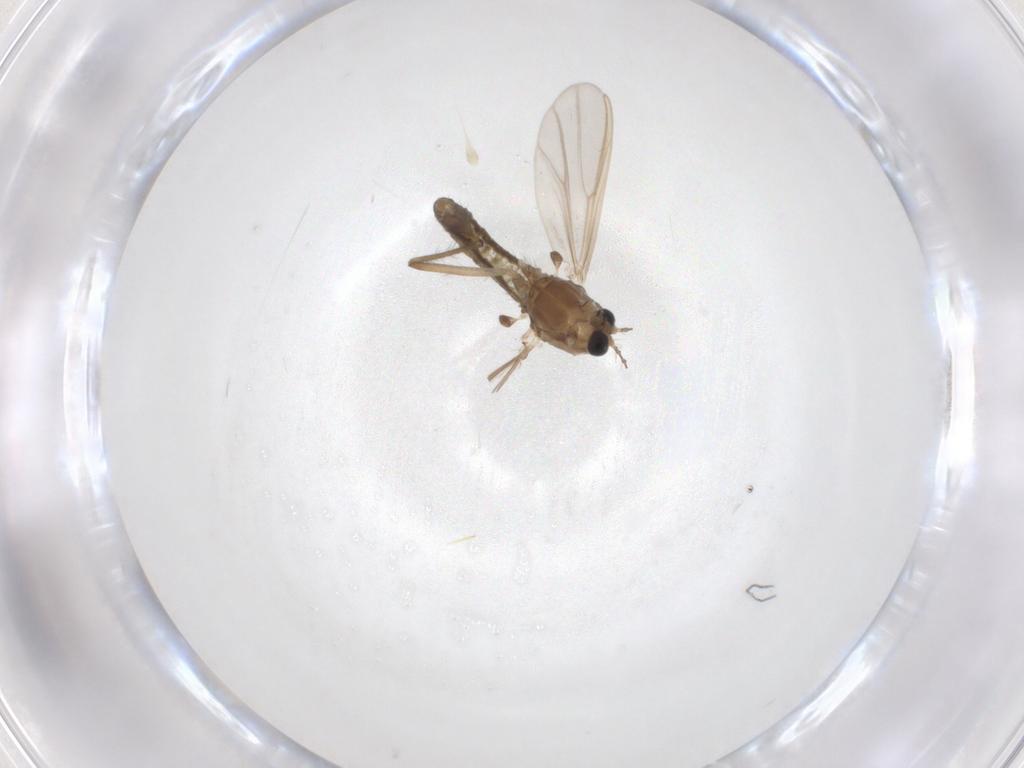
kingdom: Animalia
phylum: Arthropoda
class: Insecta
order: Diptera
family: Chironomidae
